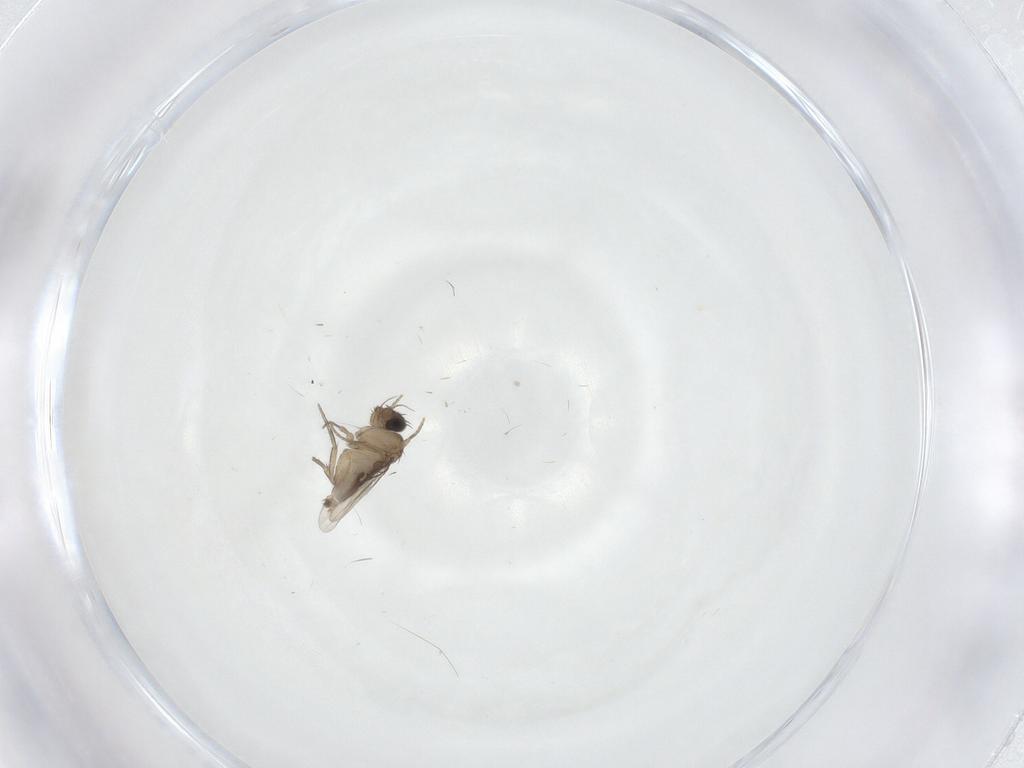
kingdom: Animalia
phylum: Arthropoda
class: Insecta
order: Diptera
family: Phoridae
